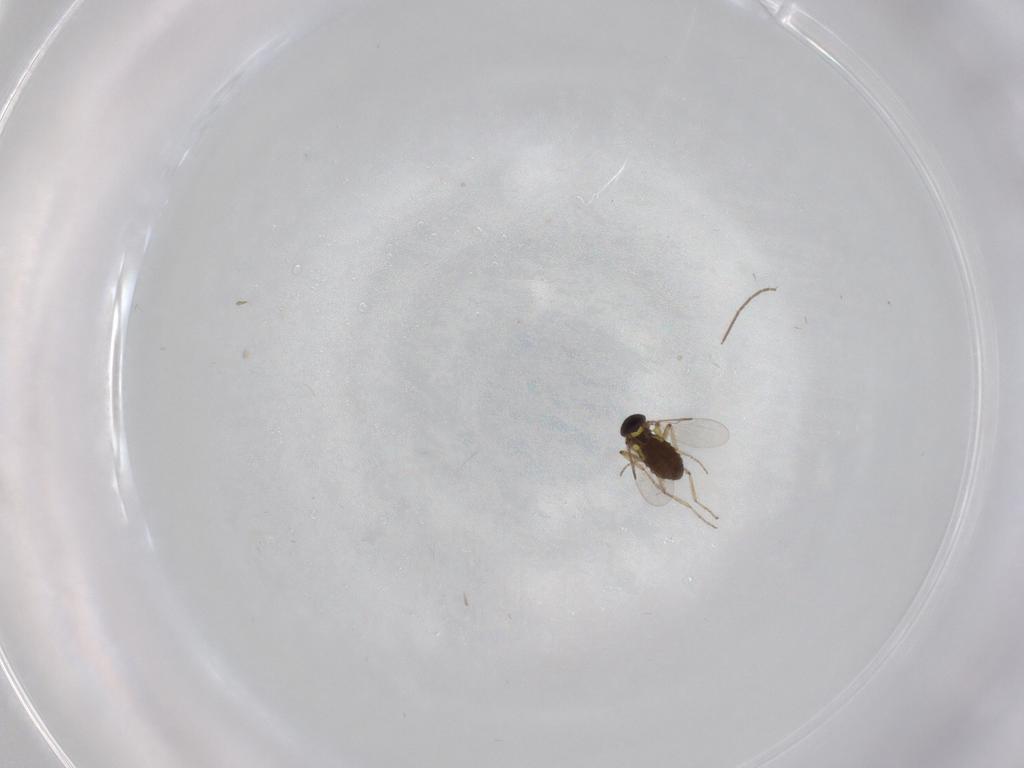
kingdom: Animalia
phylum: Arthropoda
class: Insecta
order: Diptera
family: Ceratopogonidae
